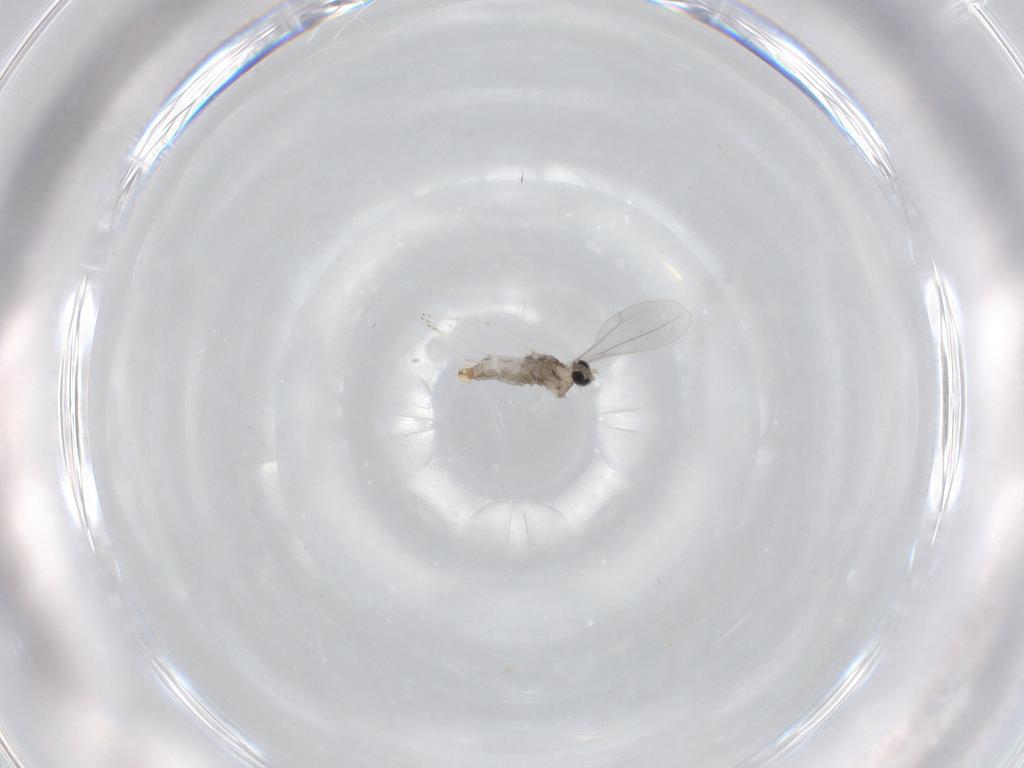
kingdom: Animalia
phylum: Arthropoda
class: Insecta
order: Diptera
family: Cecidomyiidae
